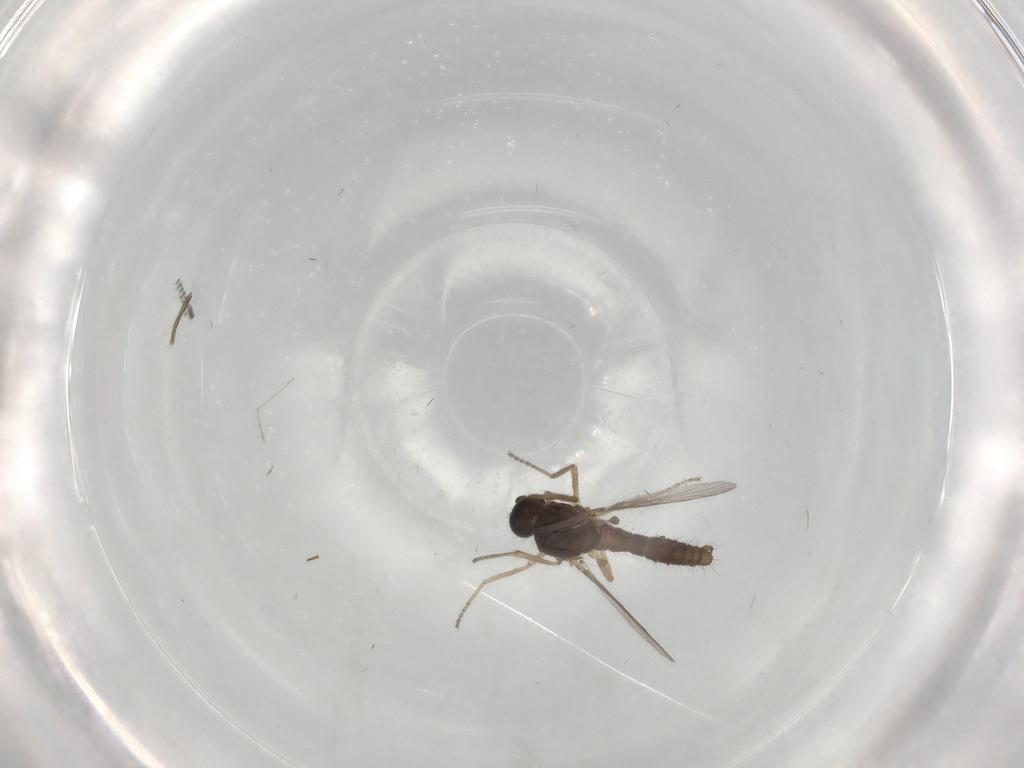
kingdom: Animalia
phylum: Arthropoda
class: Insecta
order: Diptera
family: Ceratopogonidae
